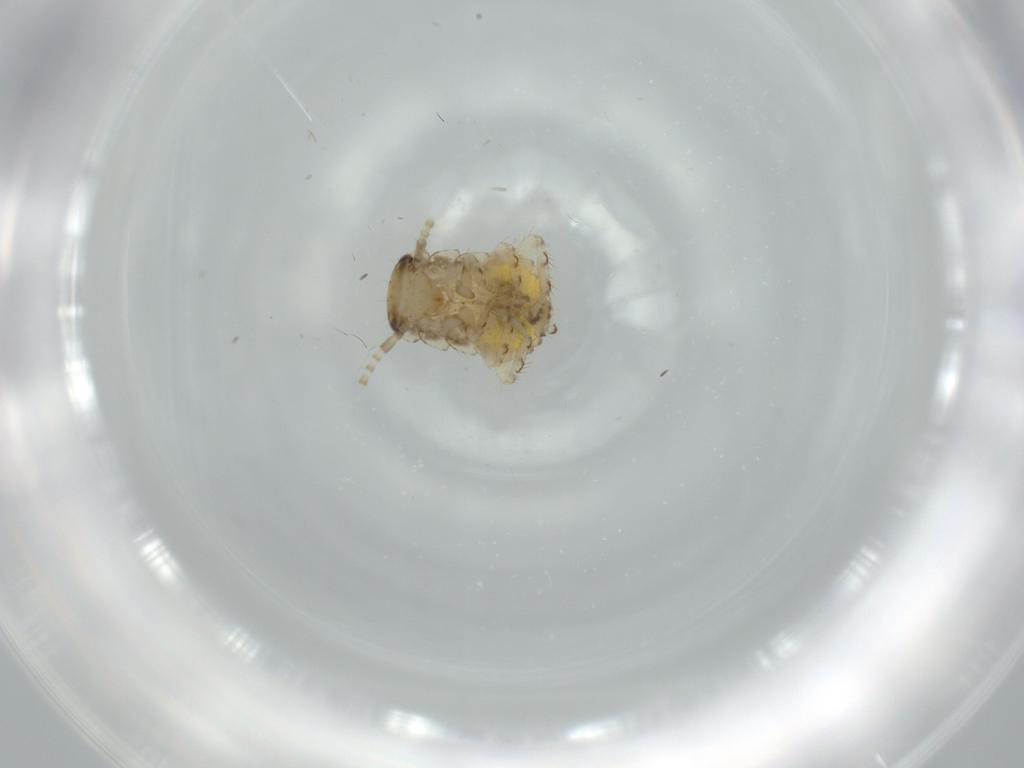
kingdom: Animalia
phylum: Arthropoda
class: Insecta
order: Blattodea
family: Ectobiidae
